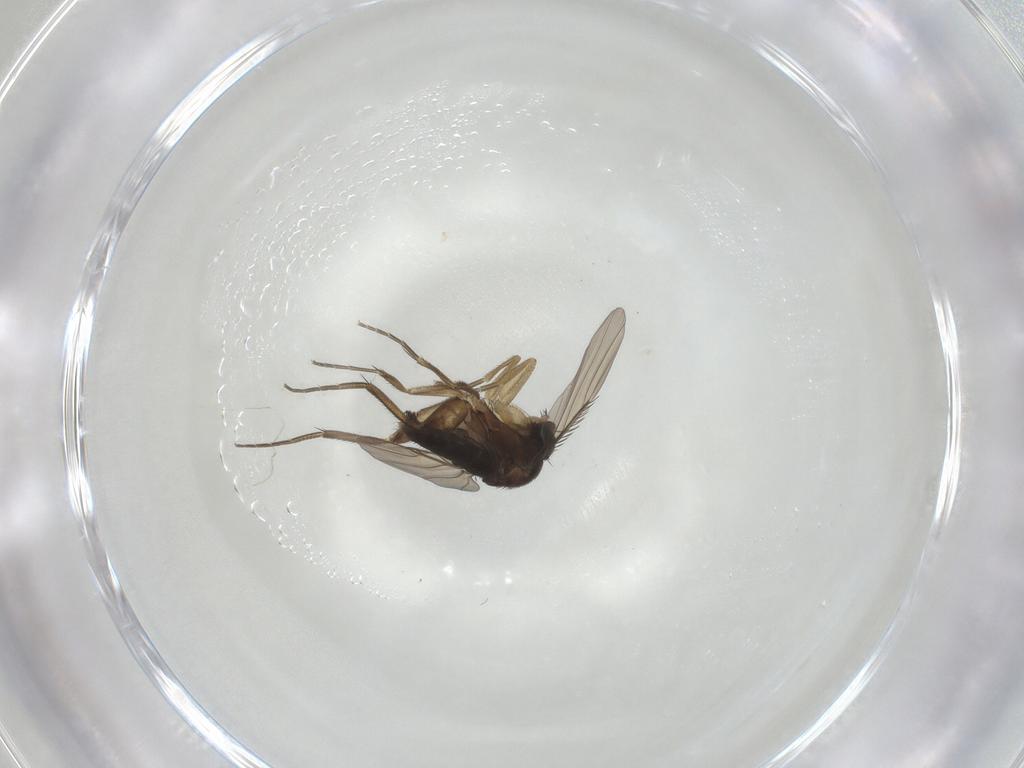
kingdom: Animalia
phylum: Arthropoda
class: Insecta
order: Diptera
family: Phoridae
